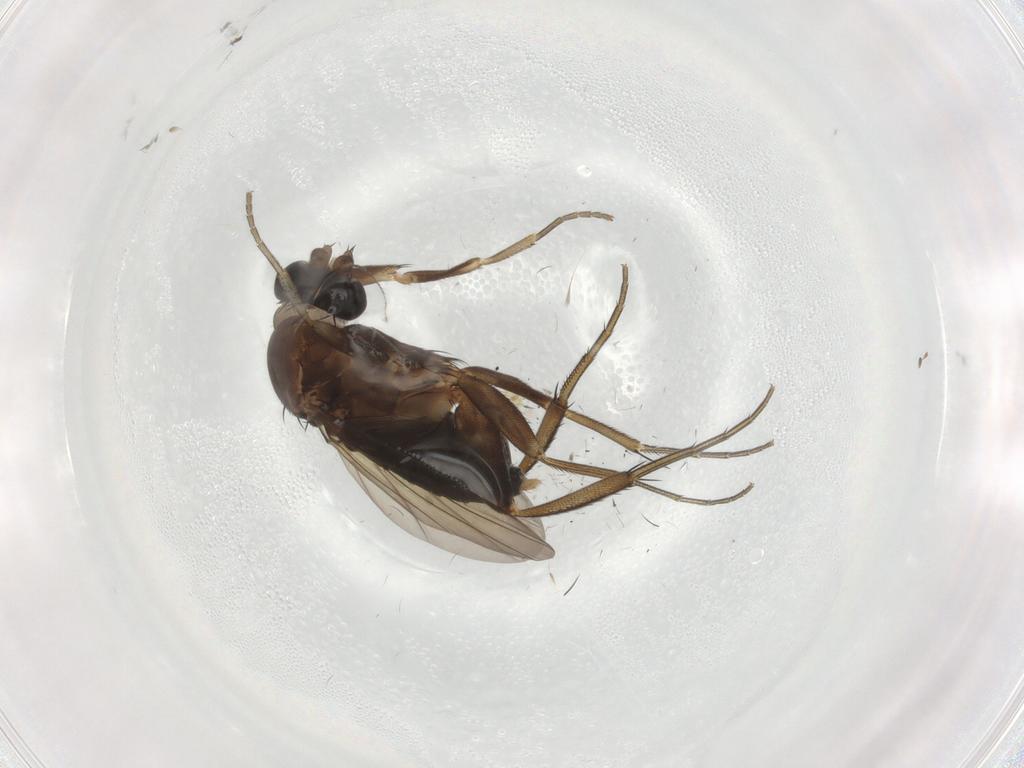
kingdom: Animalia
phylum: Arthropoda
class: Insecta
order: Diptera
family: Phoridae
